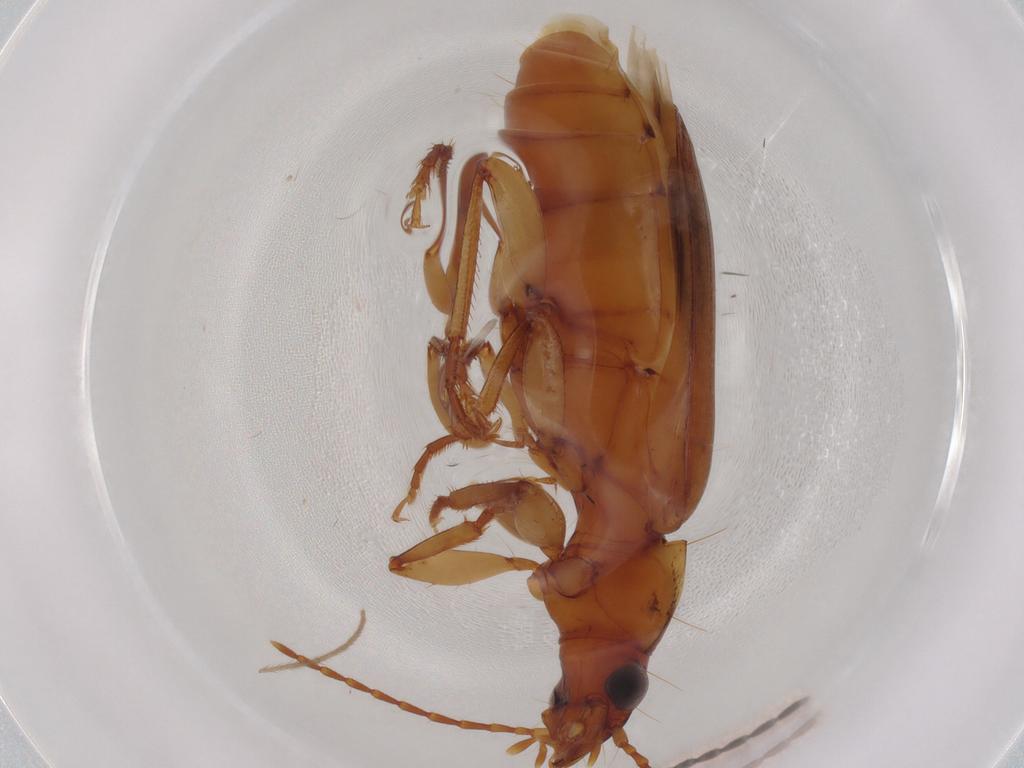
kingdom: Animalia
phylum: Arthropoda
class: Insecta
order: Coleoptera
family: Carabidae
